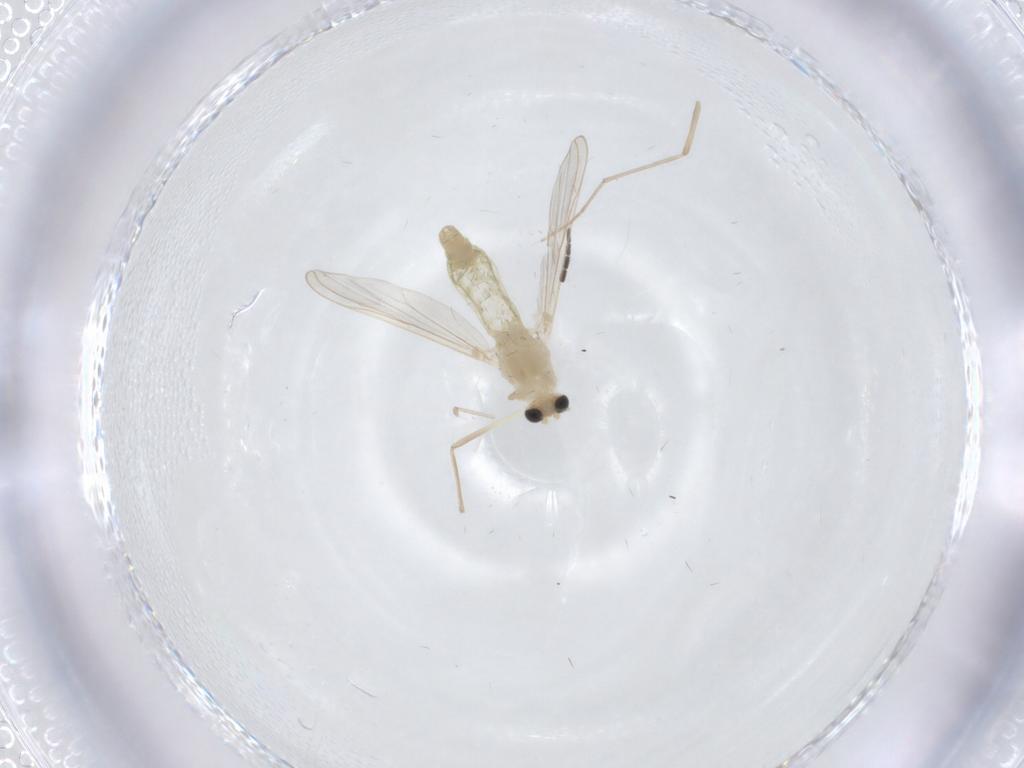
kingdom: Animalia
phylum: Arthropoda
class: Insecta
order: Diptera
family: Chironomidae
